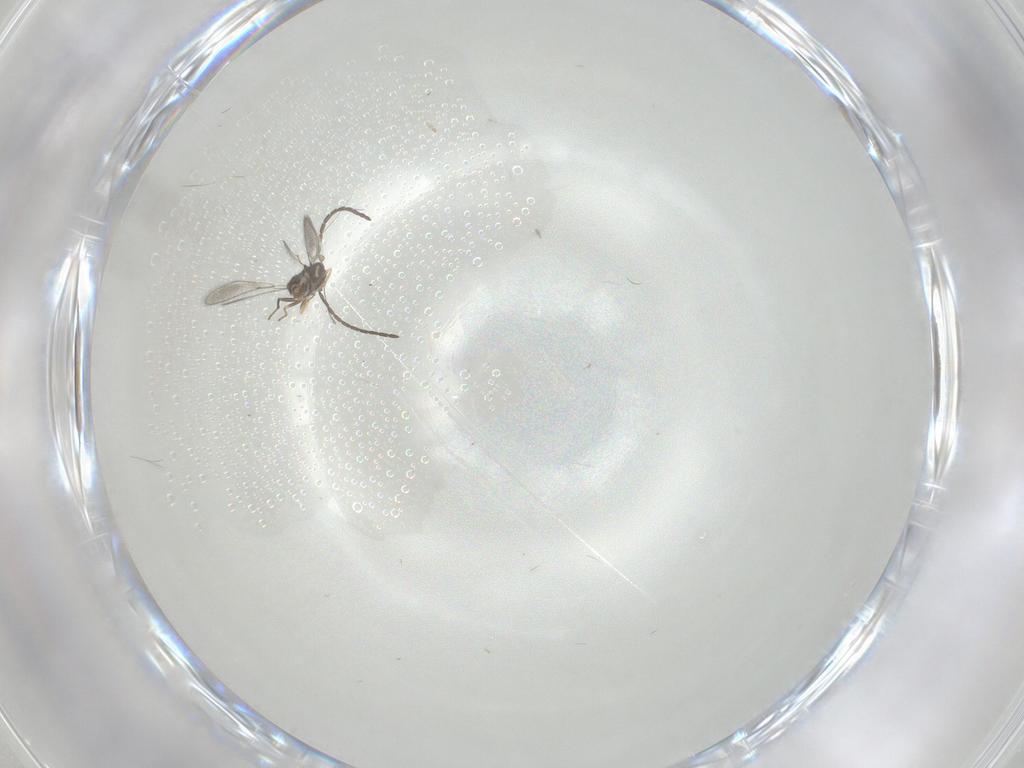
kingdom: Animalia
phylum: Arthropoda
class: Insecta
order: Hymenoptera
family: Mymaridae
